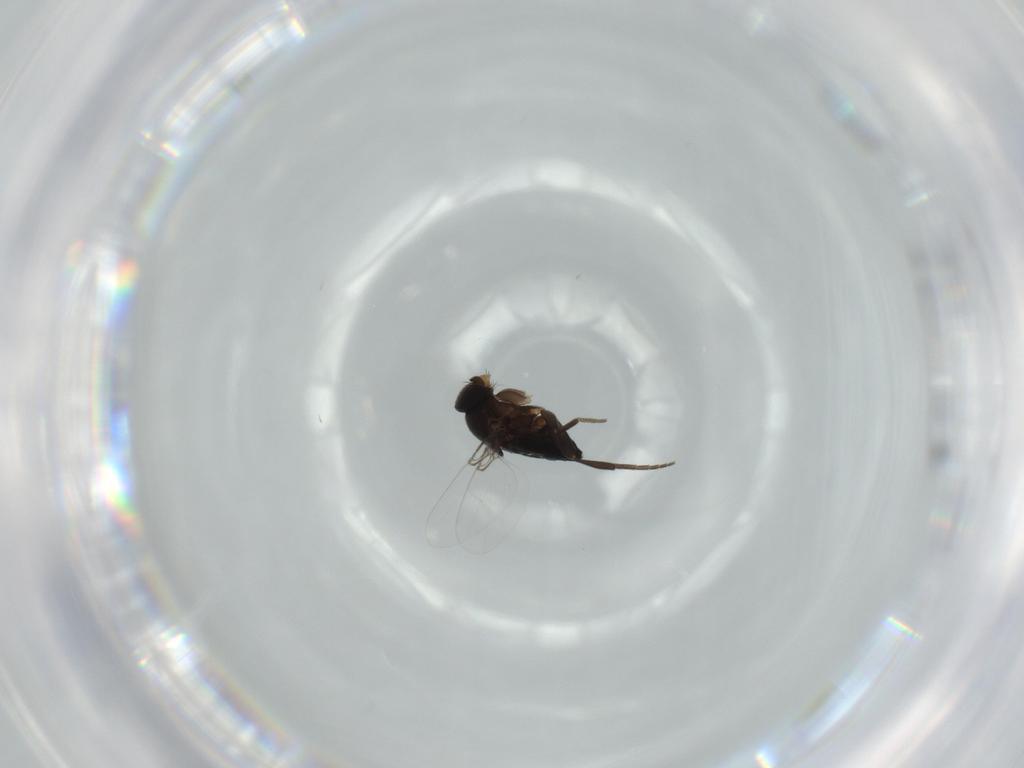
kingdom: Animalia
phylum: Arthropoda
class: Insecta
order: Diptera
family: Phoridae
